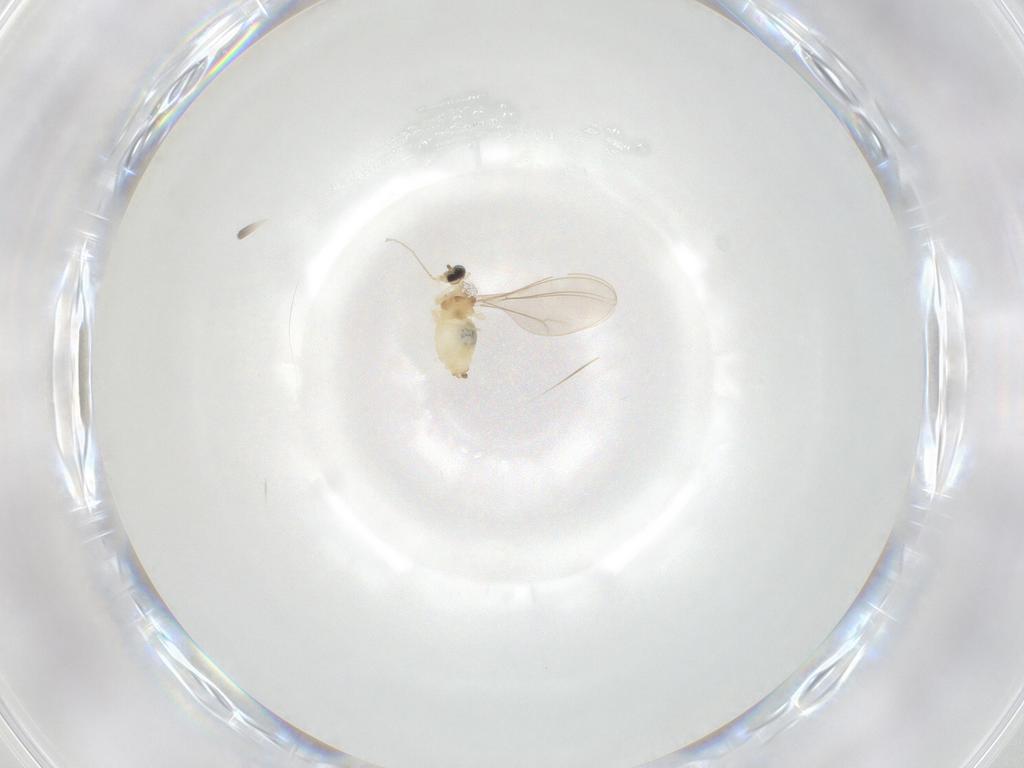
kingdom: Animalia
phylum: Arthropoda
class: Insecta
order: Diptera
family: Cecidomyiidae
